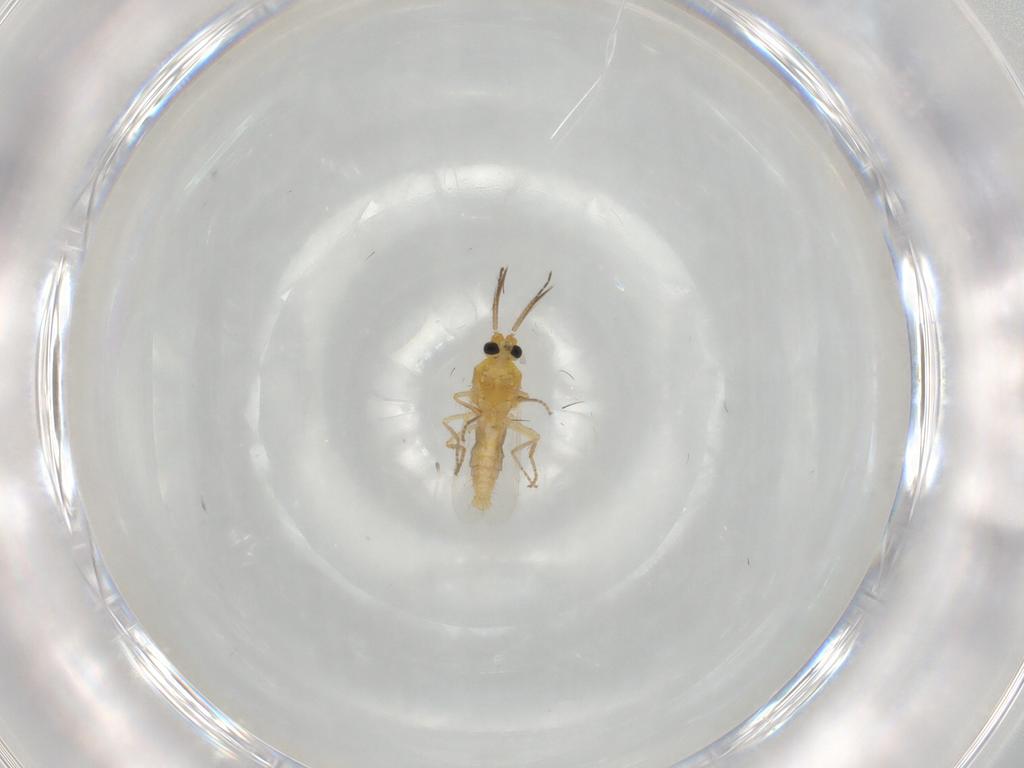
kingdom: Animalia
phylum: Arthropoda
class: Insecta
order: Diptera
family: Ceratopogonidae
